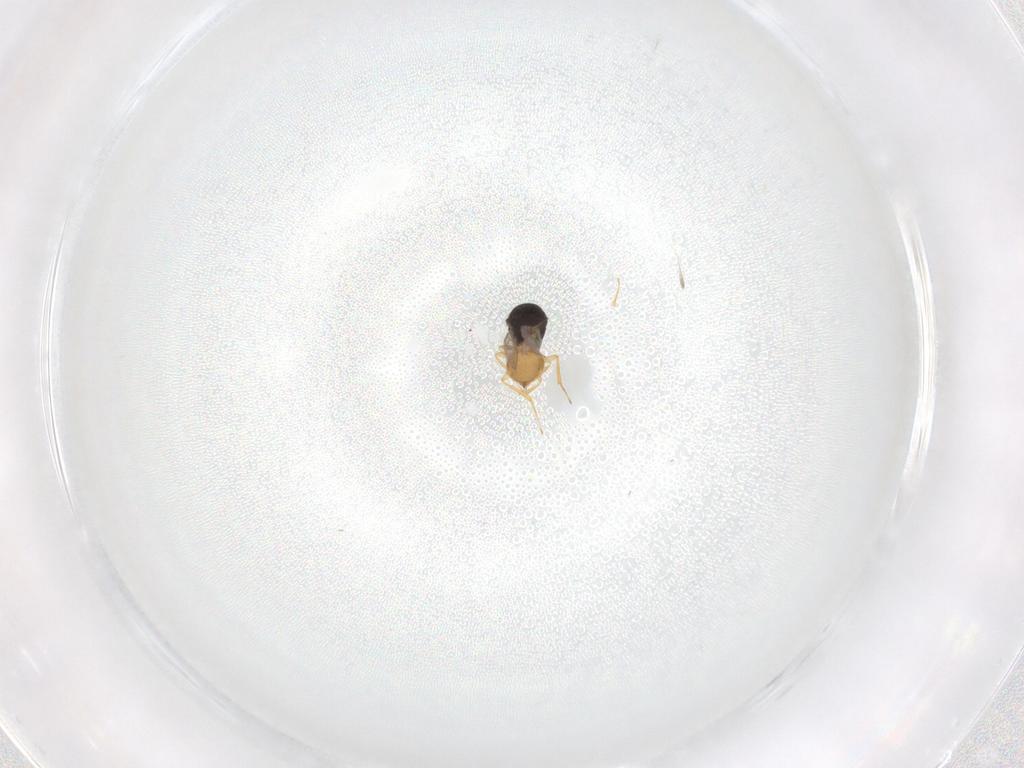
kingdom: Animalia
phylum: Arthropoda
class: Insecta
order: Hymenoptera
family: Scelionidae
